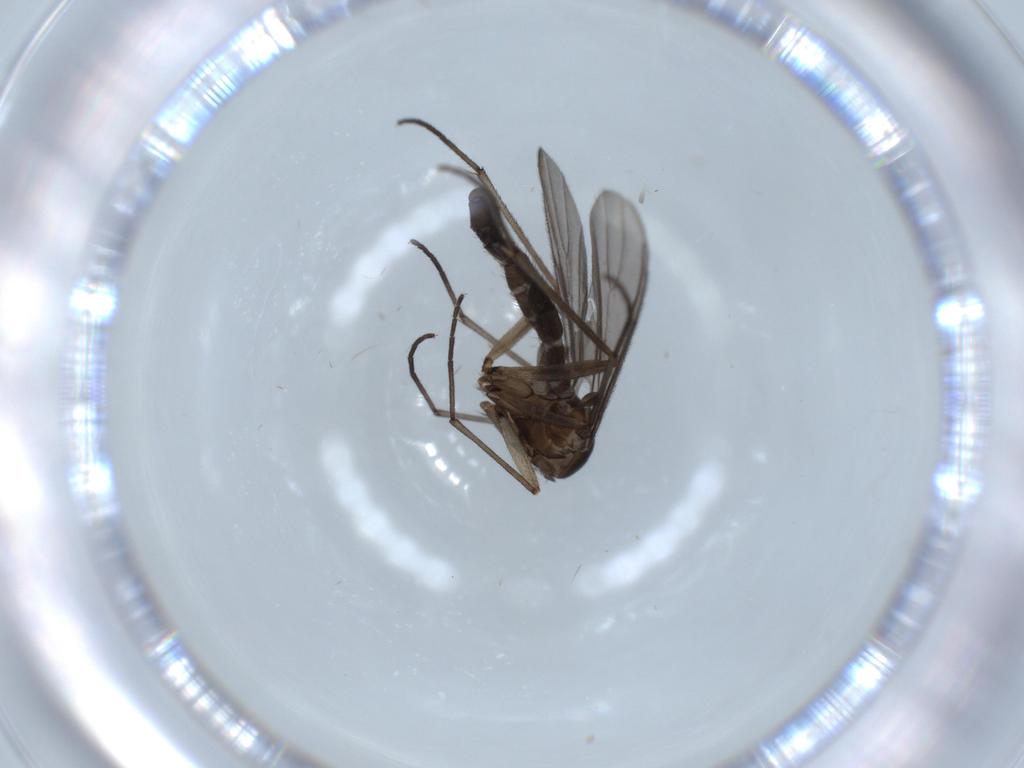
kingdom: Animalia
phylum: Arthropoda
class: Insecta
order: Diptera
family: Sciaridae
